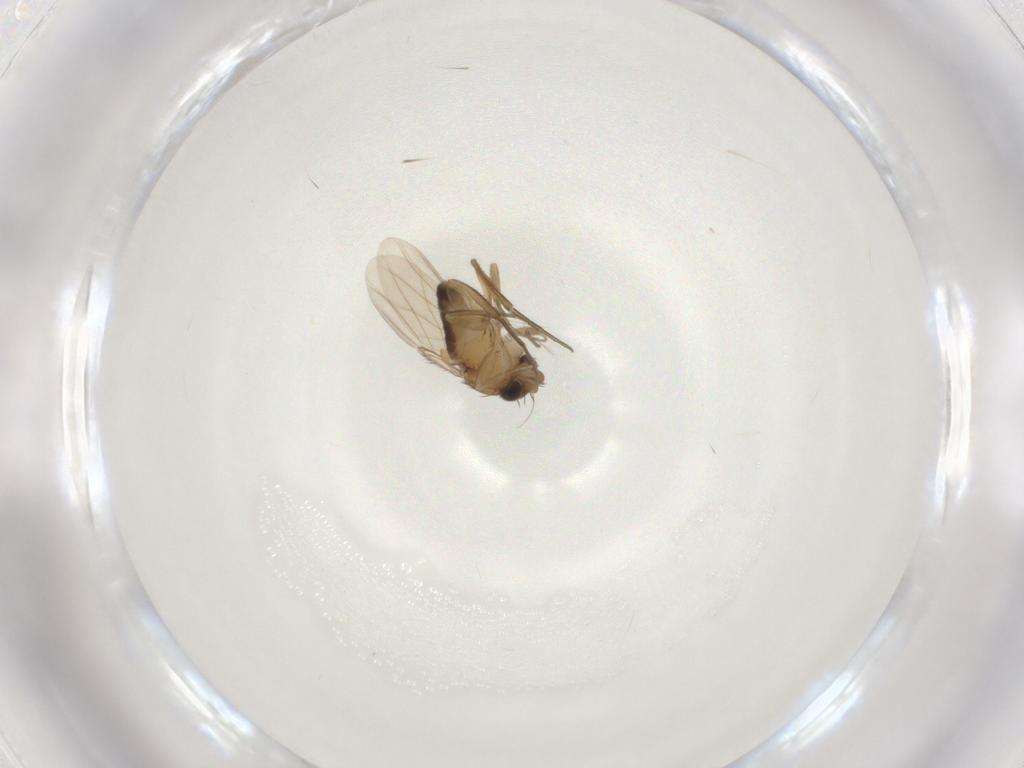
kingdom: Animalia
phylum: Arthropoda
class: Insecta
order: Diptera
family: Phoridae
